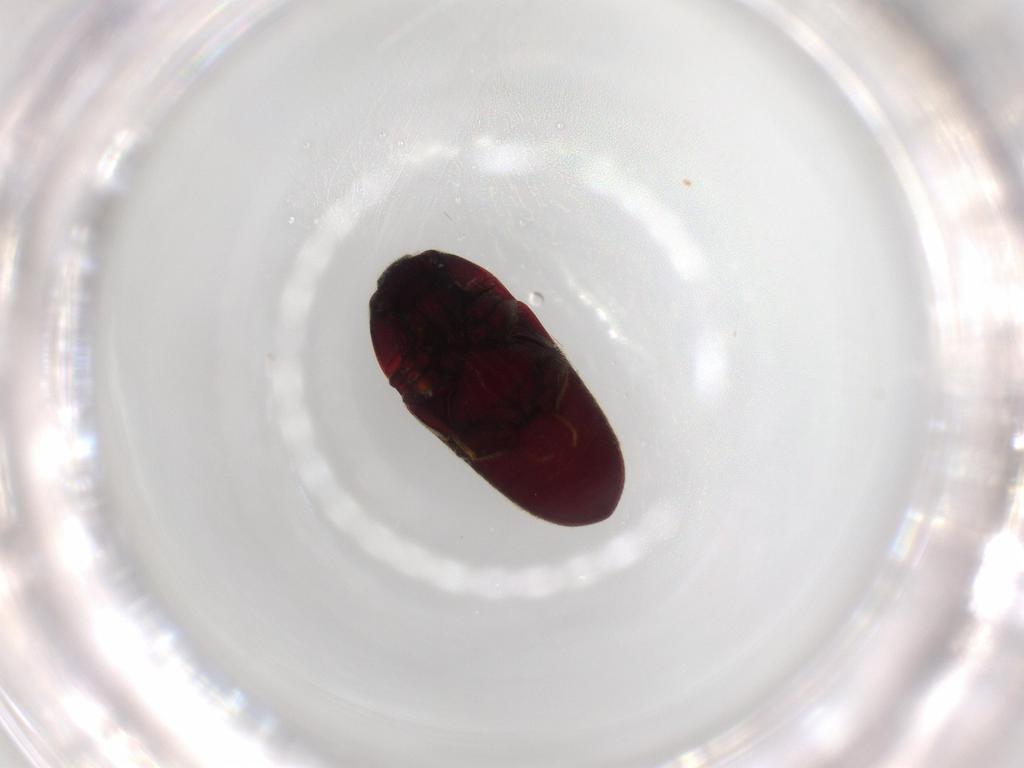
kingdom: Animalia
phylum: Arthropoda
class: Insecta
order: Coleoptera
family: Throscidae
